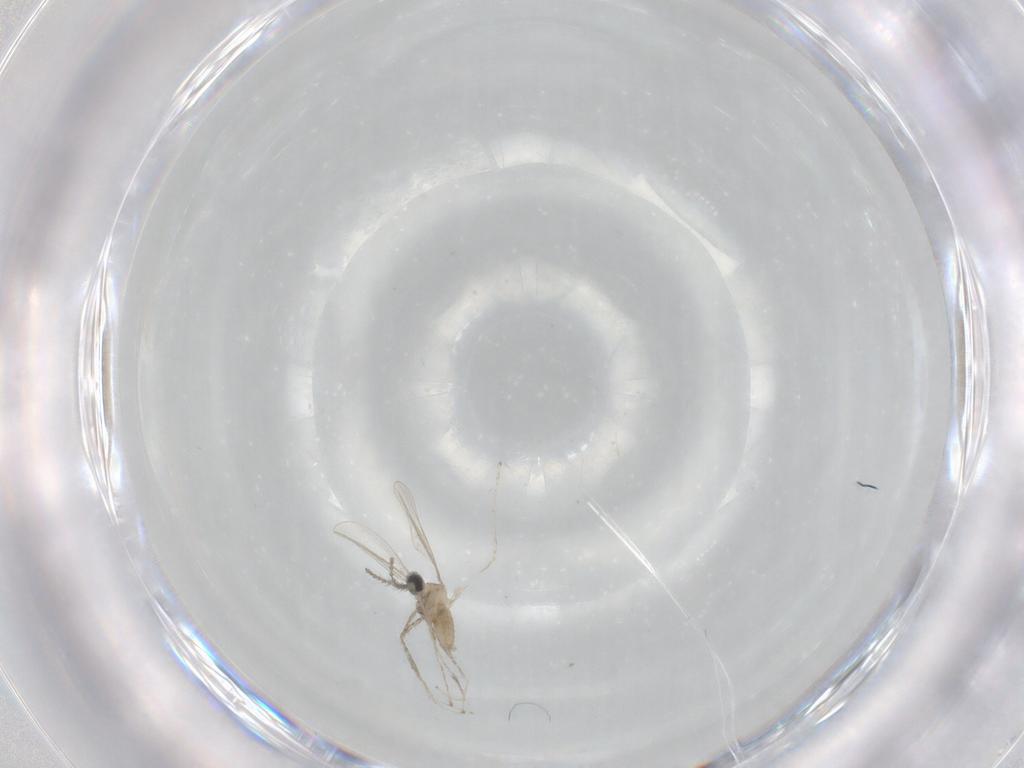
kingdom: Animalia
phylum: Arthropoda
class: Insecta
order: Diptera
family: Cecidomyiidae
